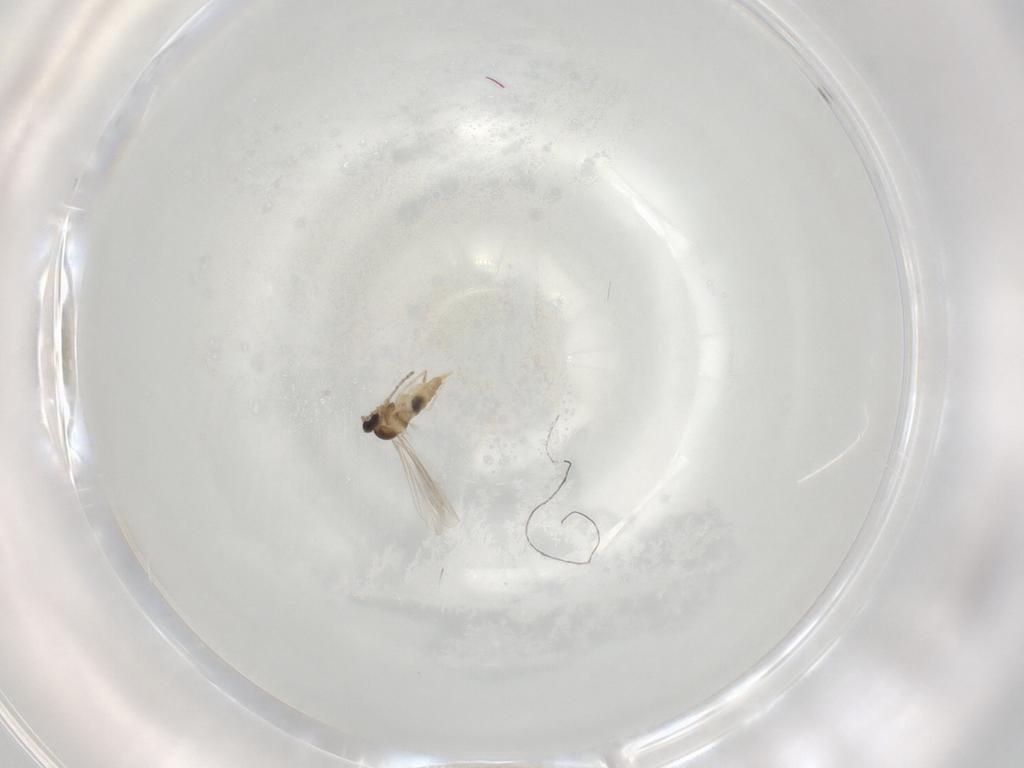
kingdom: Animalia
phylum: Arthropoda
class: Insecta
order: Diptera
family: Cecidomyiidae
